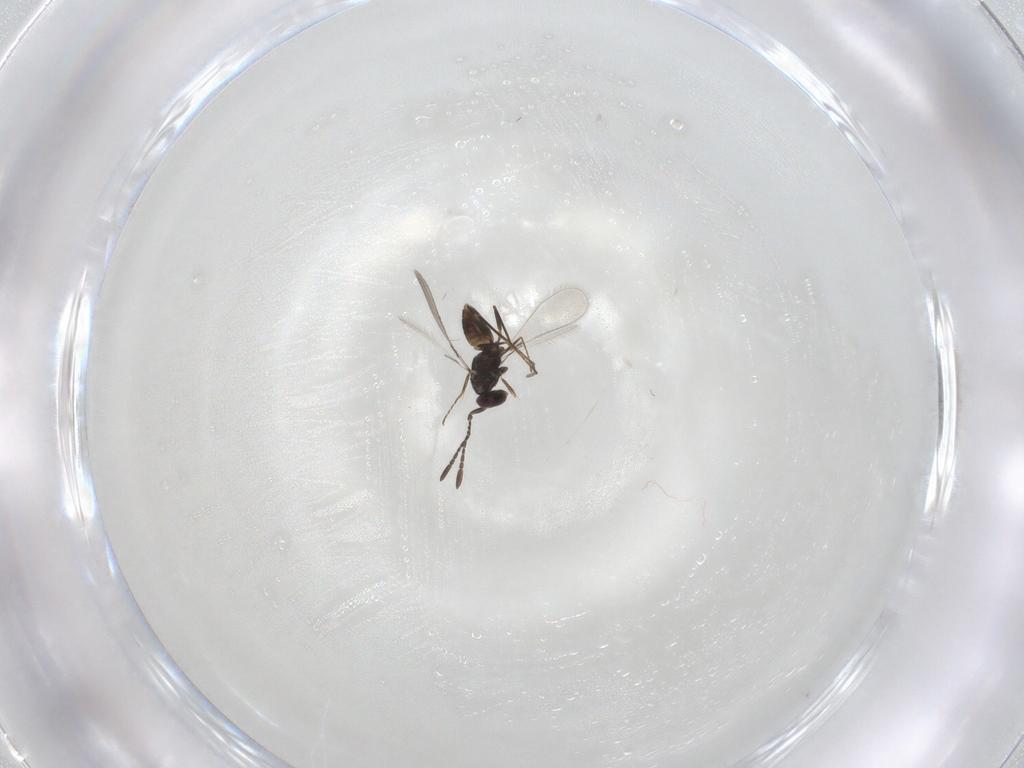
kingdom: Animalia
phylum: Arthropoda
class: Insecta
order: Hymenoptera
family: Mymaridae
